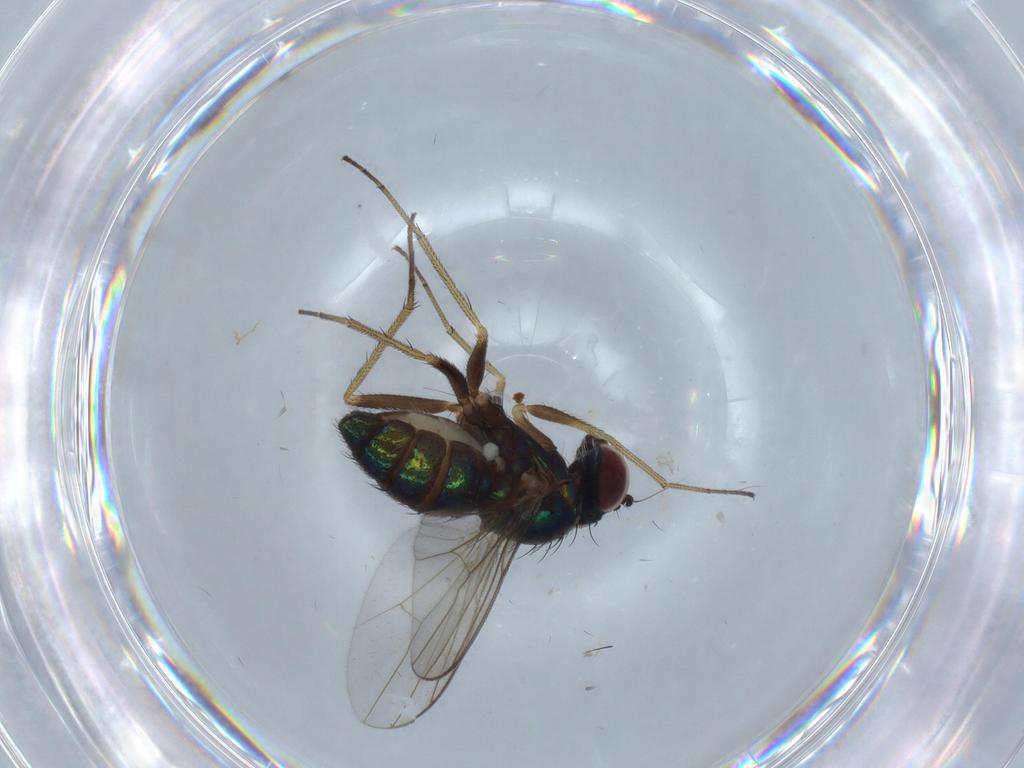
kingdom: Animalia
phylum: Arthropoda
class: Insecta
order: Diptera
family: Dolichopodidae
